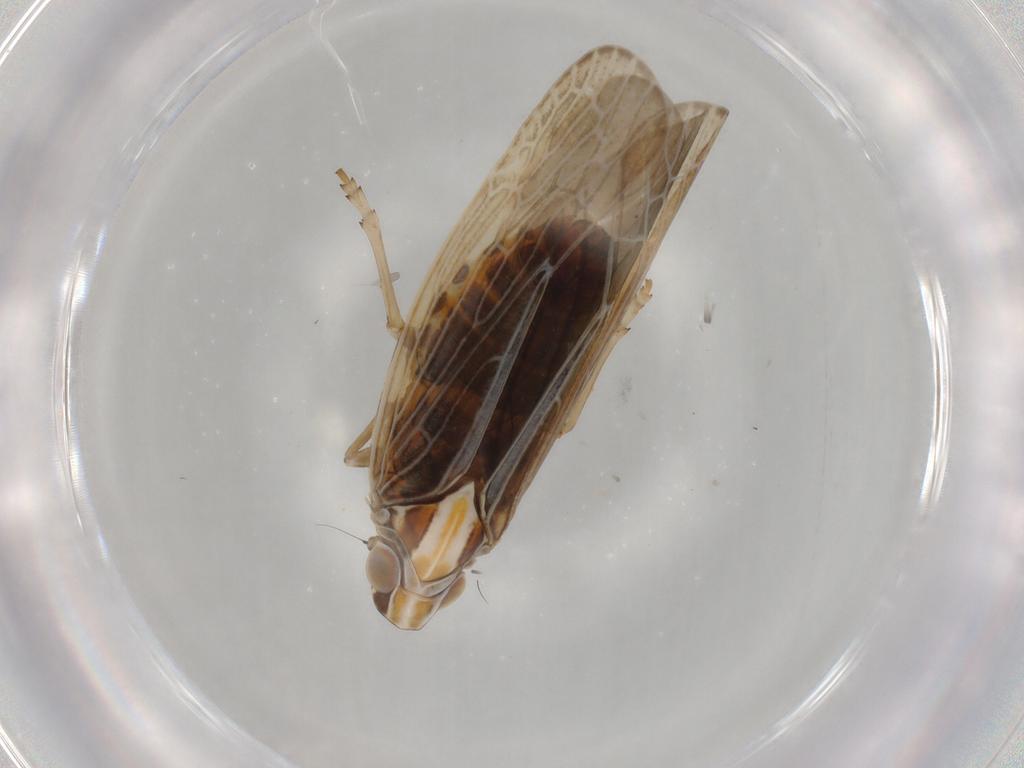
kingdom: Animalia
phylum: Arthropoda
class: Insecta
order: Hemiptera
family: Achilidae
